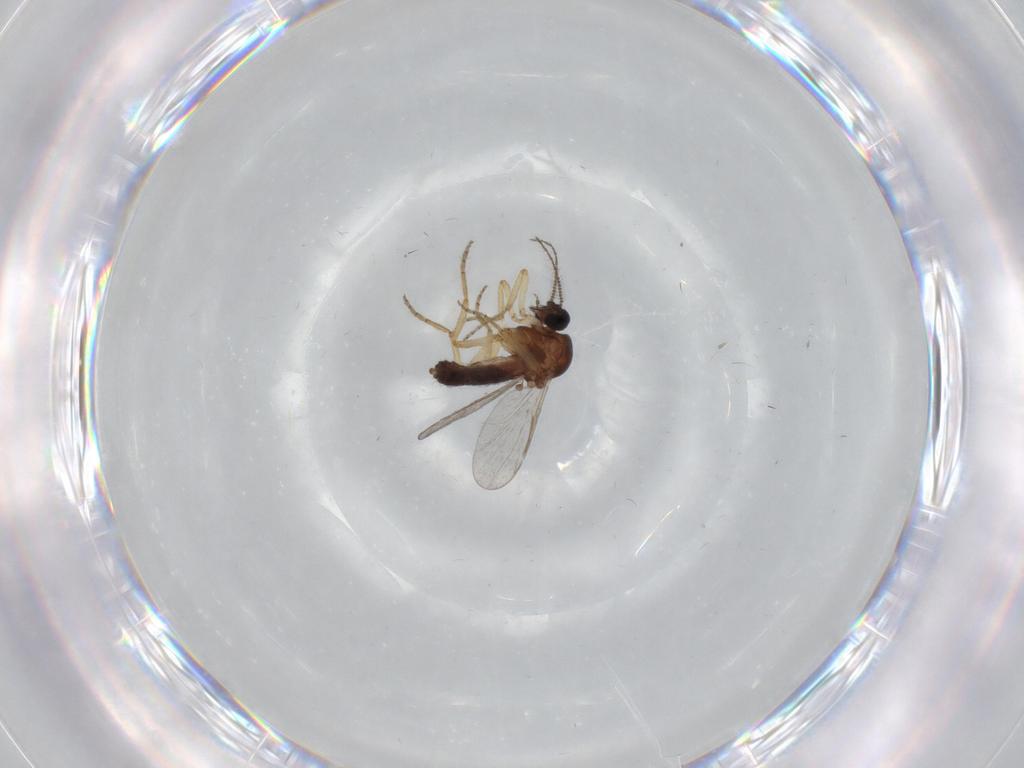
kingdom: Animalia
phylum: Arthropoda
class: Insecta
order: Diptera
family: Ceratopogonidae
